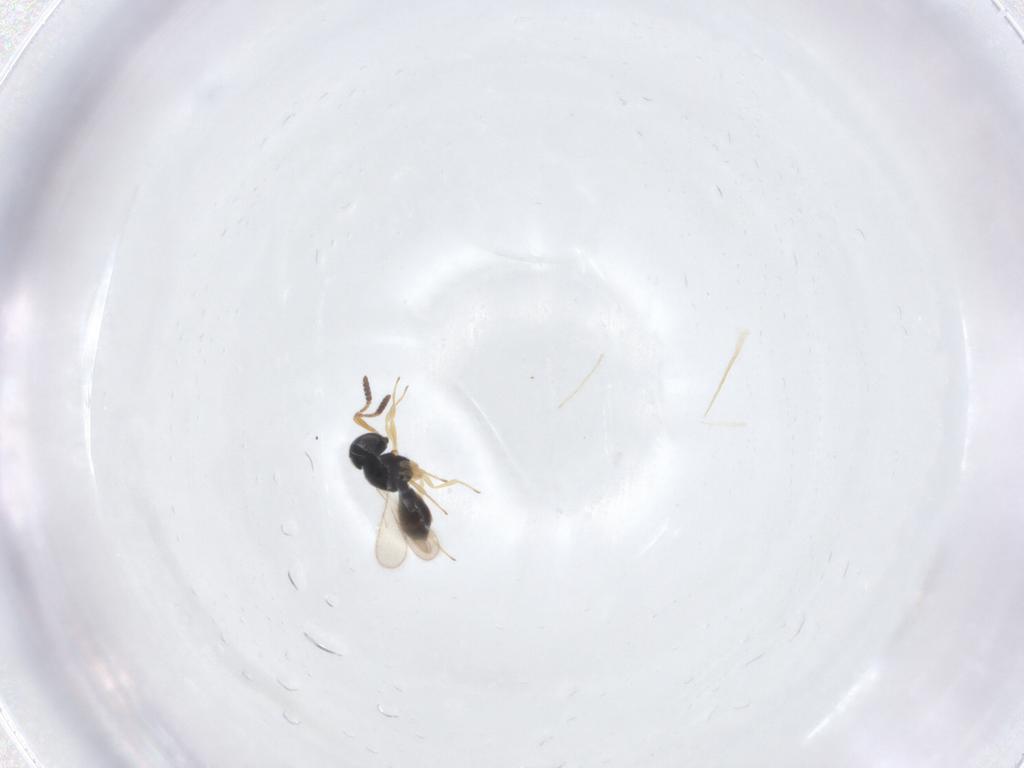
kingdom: Animalia
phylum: Arthropoda
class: Insecta
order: Hymenoptera
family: Scelionidae
